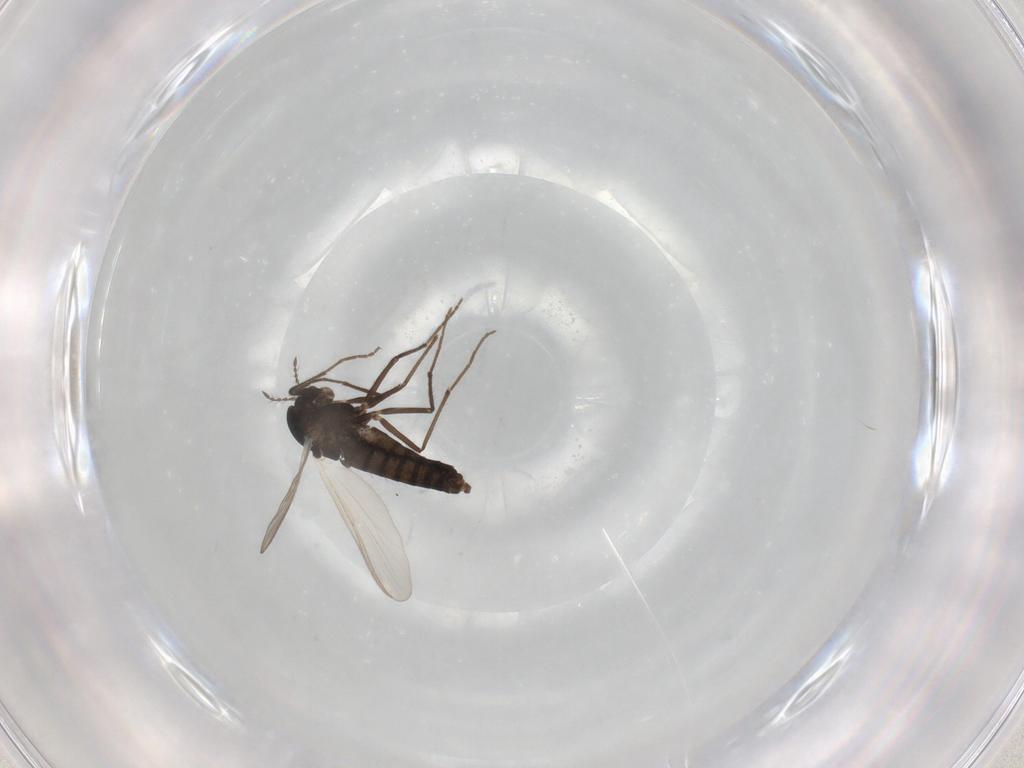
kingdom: Animalia
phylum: Arthropoda
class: Insecta
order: Diptera
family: Chironomidae
